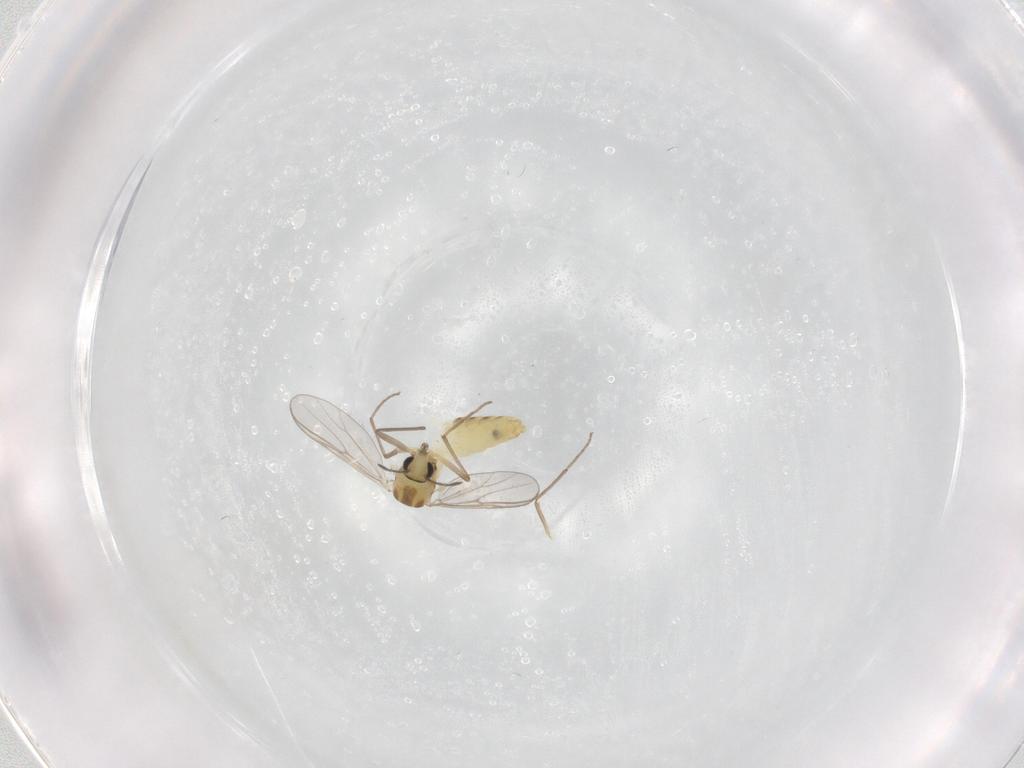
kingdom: Animalia
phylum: Arthropoda
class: Insecta
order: Diptera
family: Chironomidae
